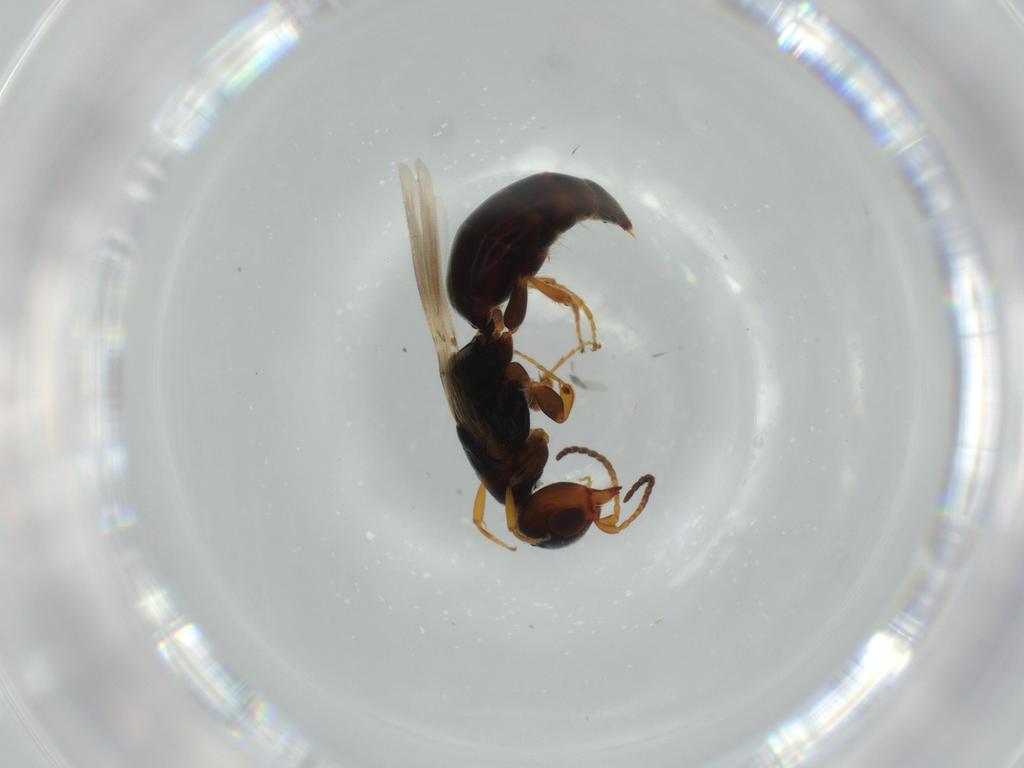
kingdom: Animalia
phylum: Arthropoda
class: Insecta
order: Hymenoptera
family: Bethylidae
